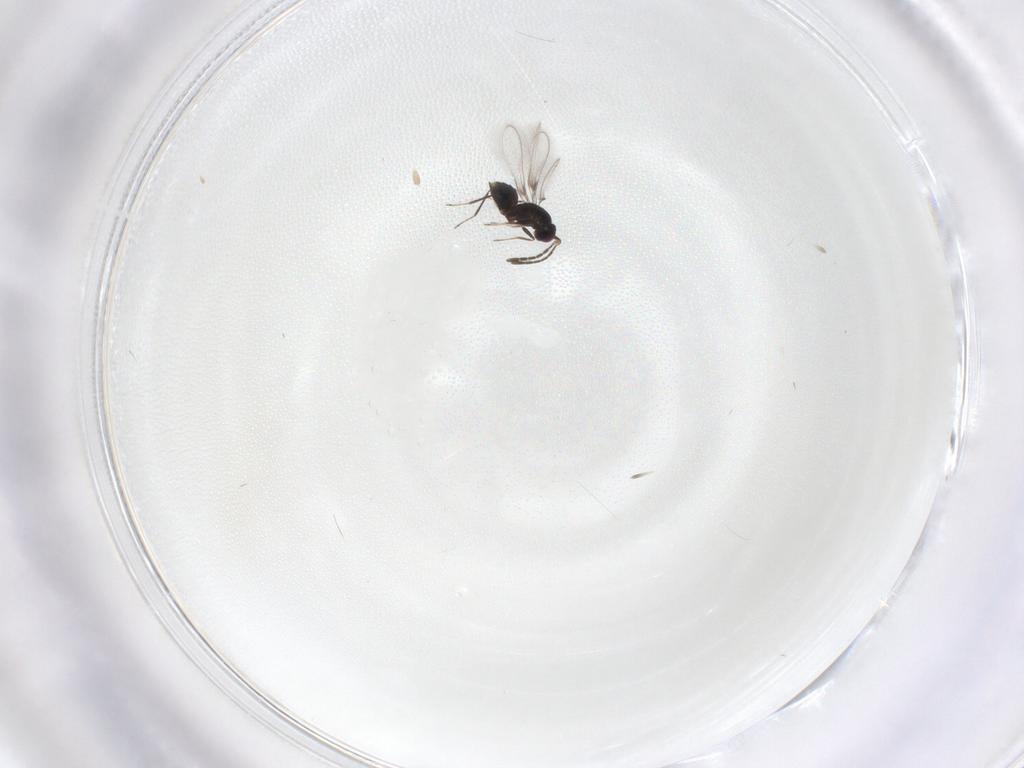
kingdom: Animalia
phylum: Arthropoda
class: Insecta
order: Hymenoptera
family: Mymaridae
